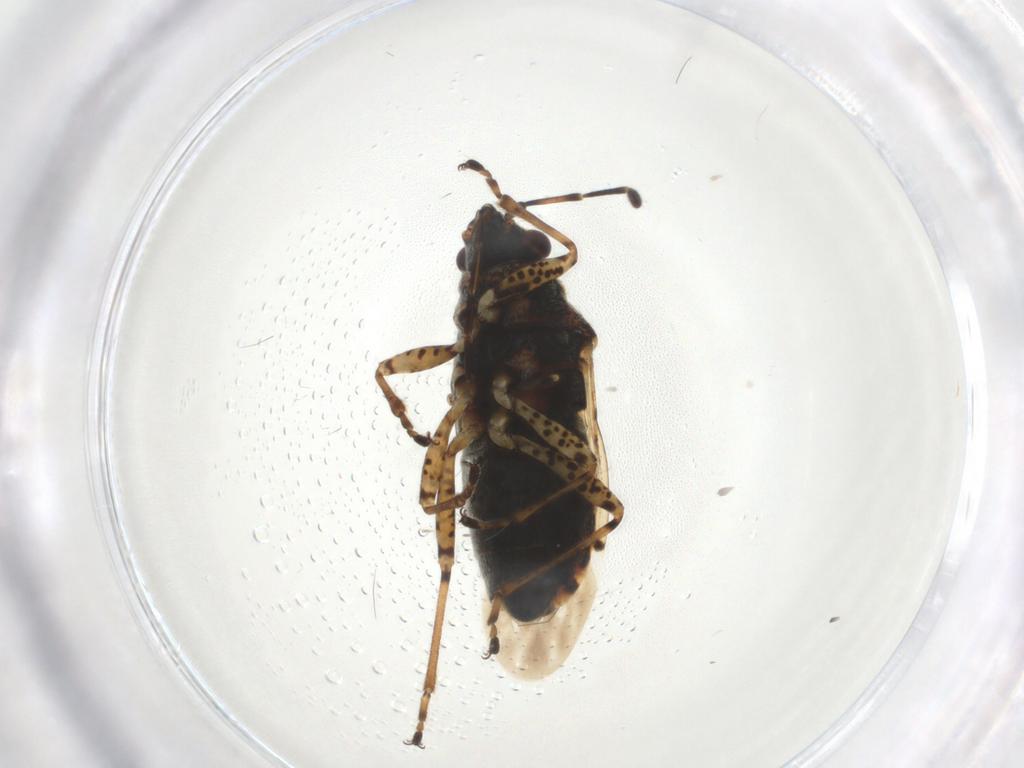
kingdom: Animalia
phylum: Arthropoda
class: Insecta
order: Hemiptera
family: Lygaeidae
